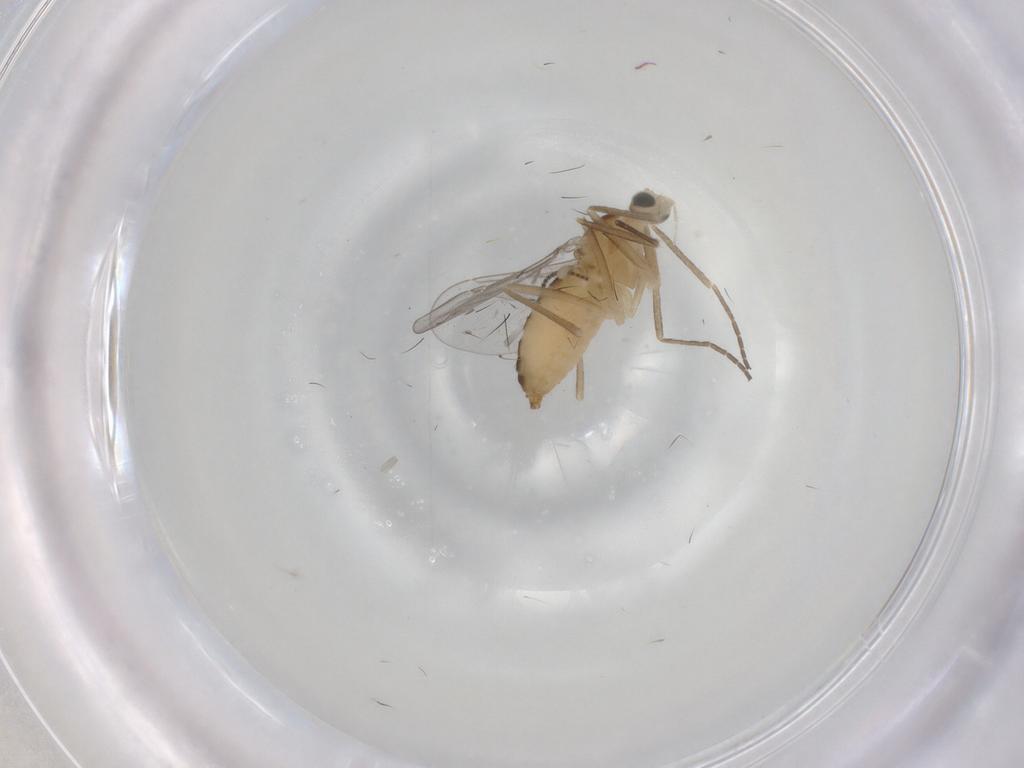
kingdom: Animalia
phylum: Arthropoda
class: Insecta
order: Diptera
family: Cecidomyiidae
